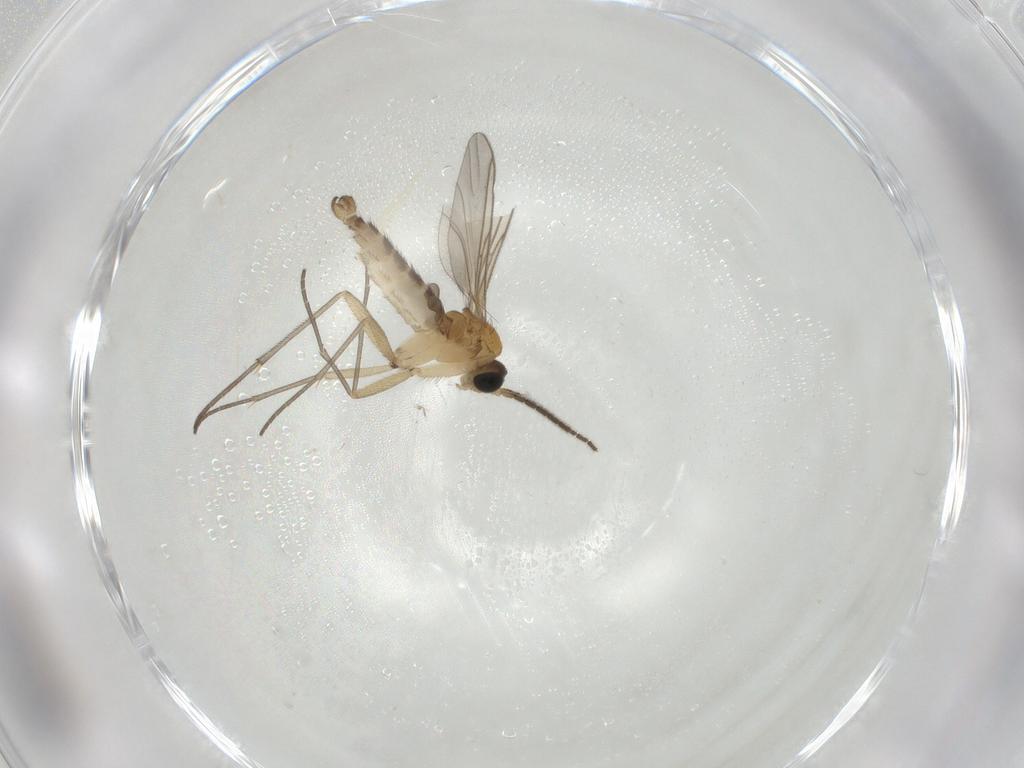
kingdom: Animalia
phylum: Arthropoda
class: Insecta
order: Diptera
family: Sciaridae
